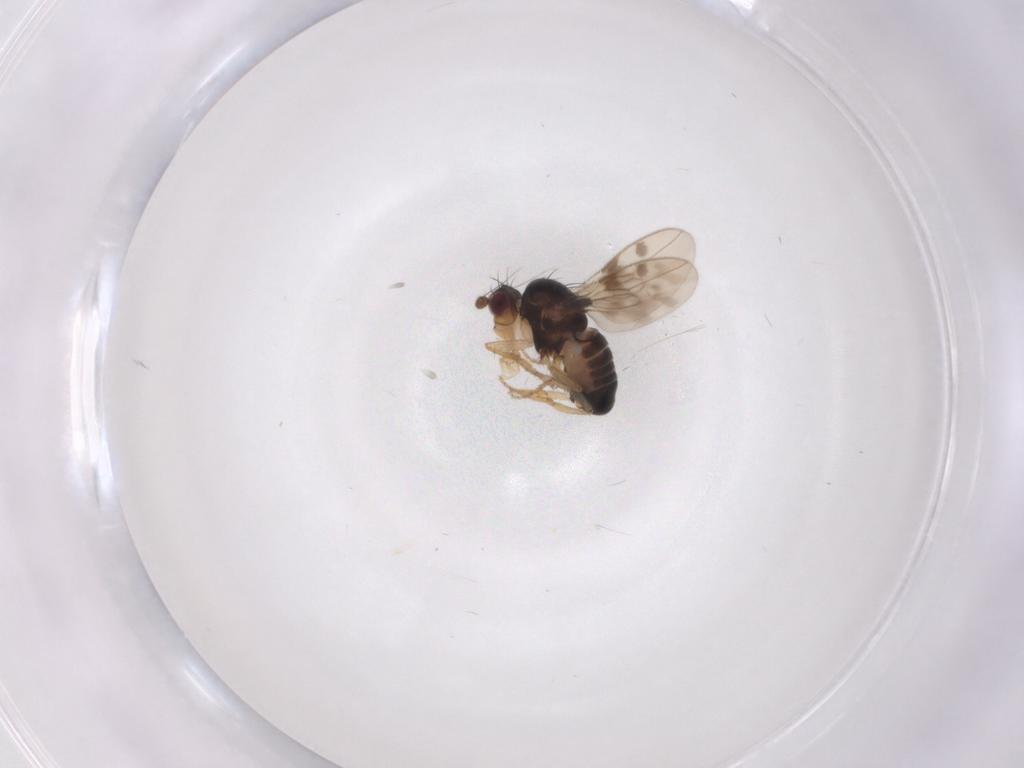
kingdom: Animalia
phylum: Arthropoda
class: Insecta
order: Diptera
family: Sphaeroceridae
